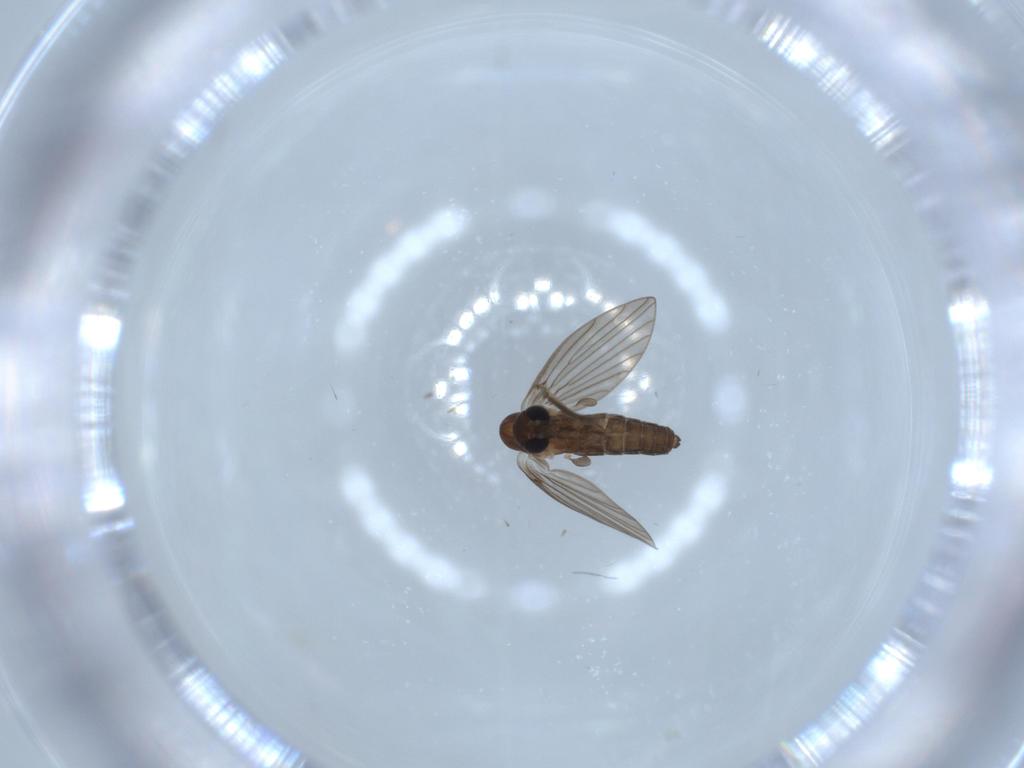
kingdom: Animalia
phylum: Arthropoda
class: Insecta
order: Diptera
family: Psychodidae
